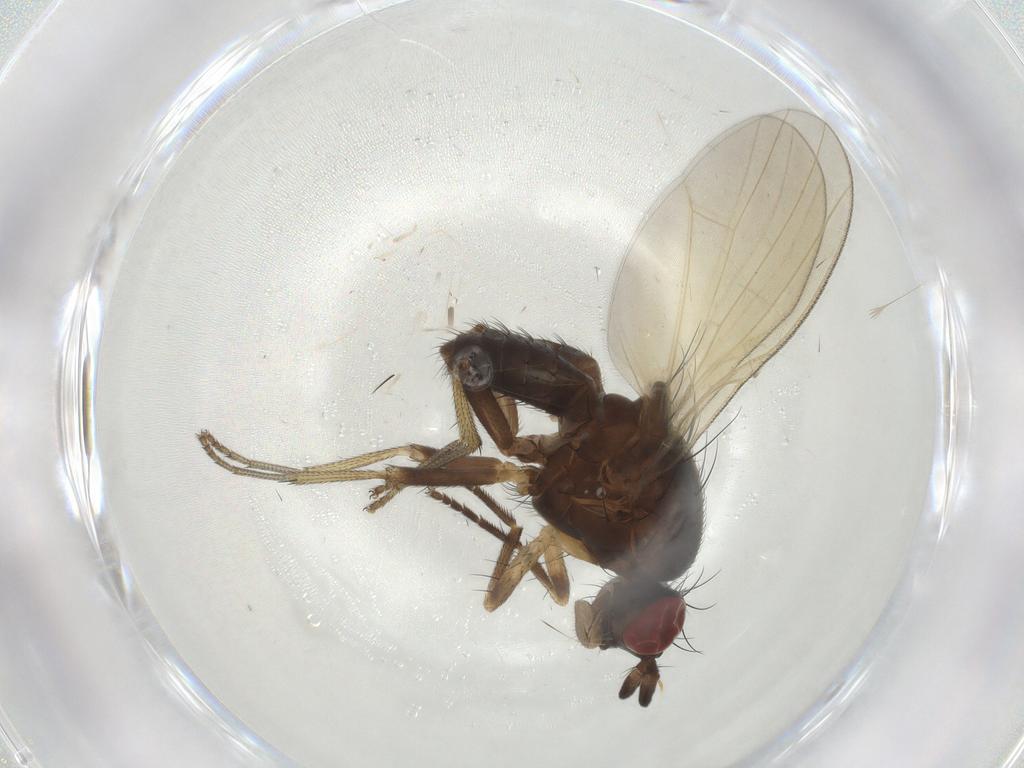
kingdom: Animalia
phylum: Arthropoda
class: Insecta
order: Diptera
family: Lauxaniidae
